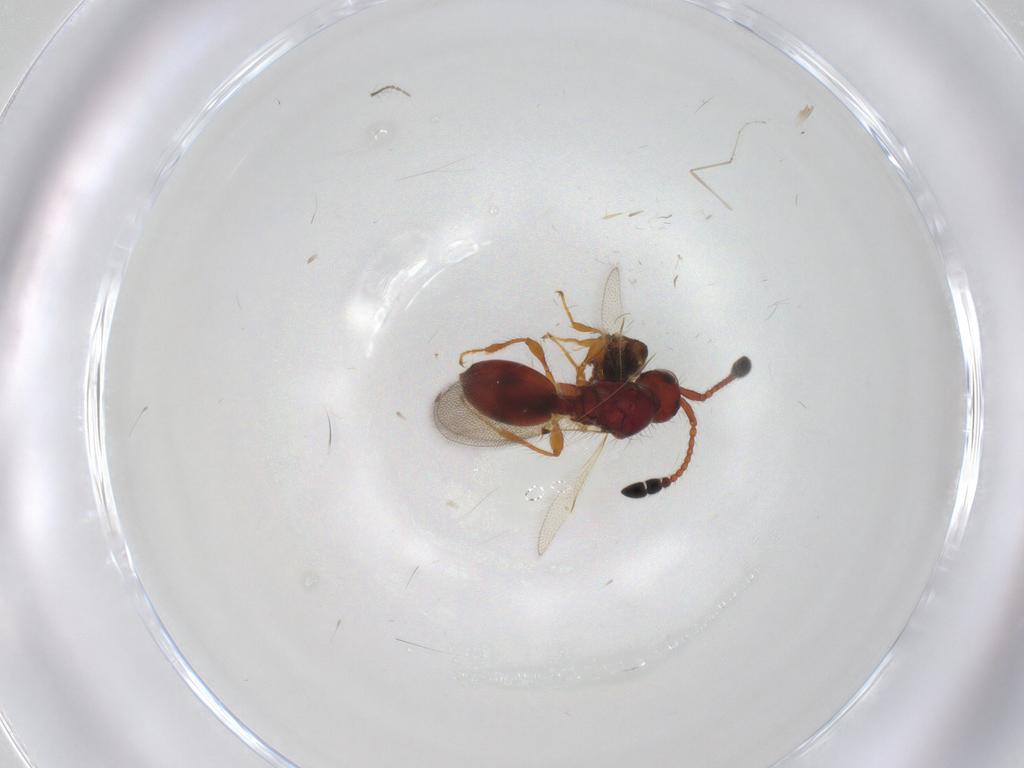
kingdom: Animalia
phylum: Arthropoda
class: Insecta
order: Hymenoptera
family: Diapriidae
